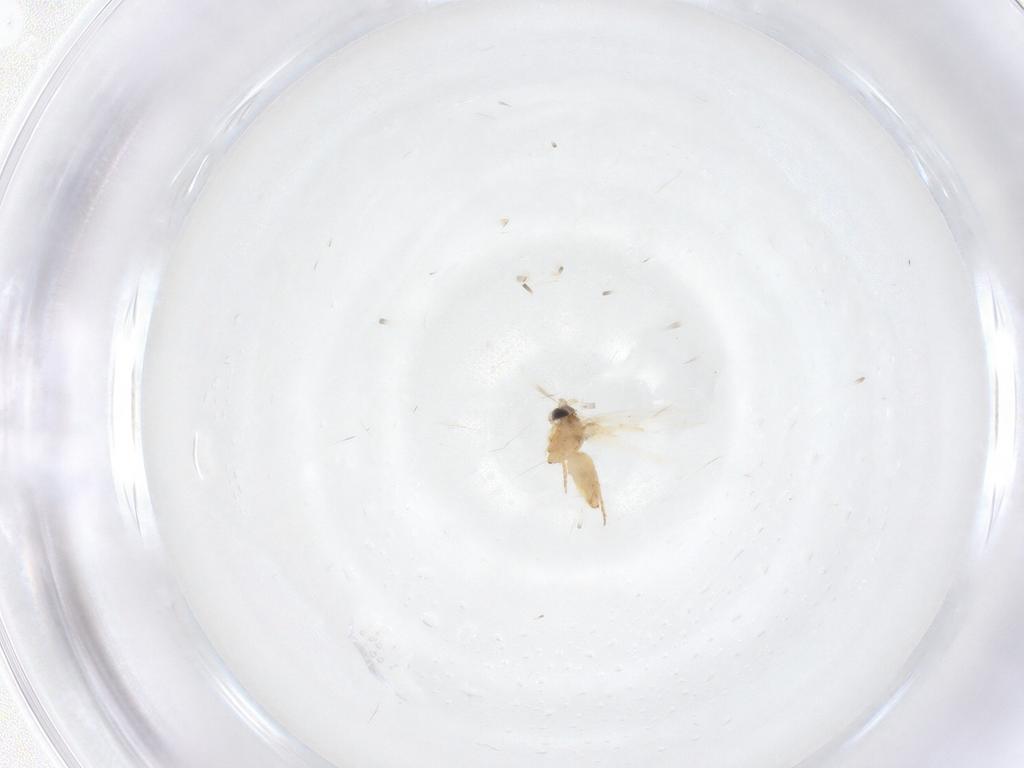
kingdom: Animalia
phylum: Arthropoda
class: Insecta
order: Lepidoptera
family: Crambidae
